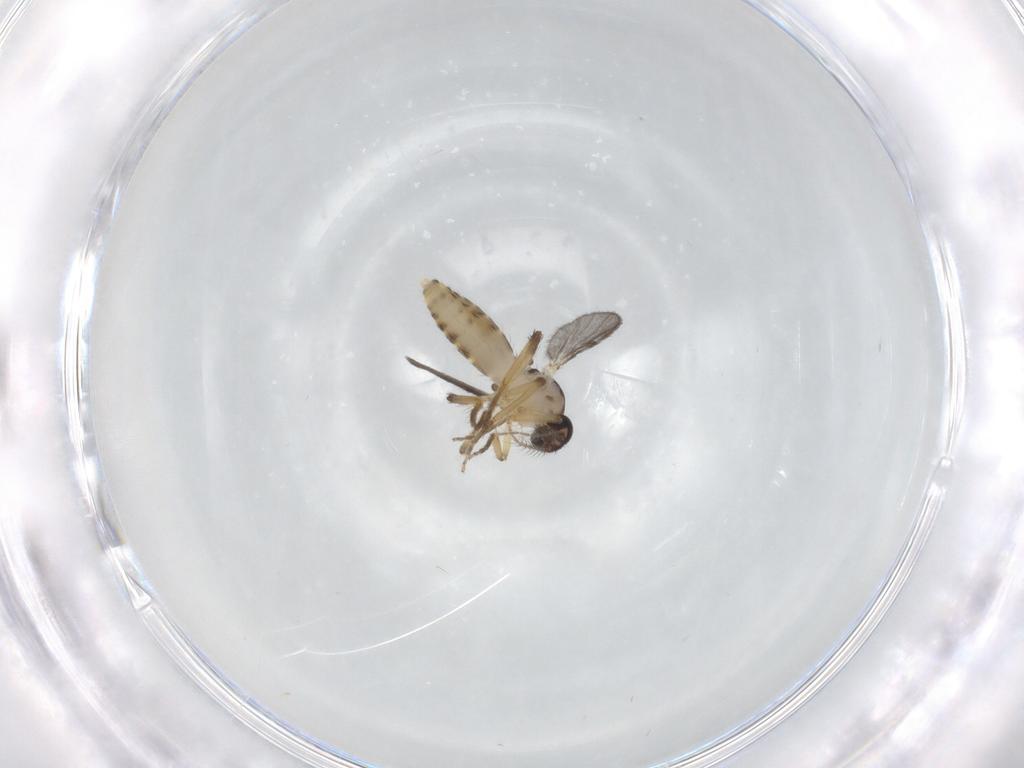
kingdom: Animalia
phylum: Arthropoda
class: Insecta
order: Diptera
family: Ceratopogonidae
